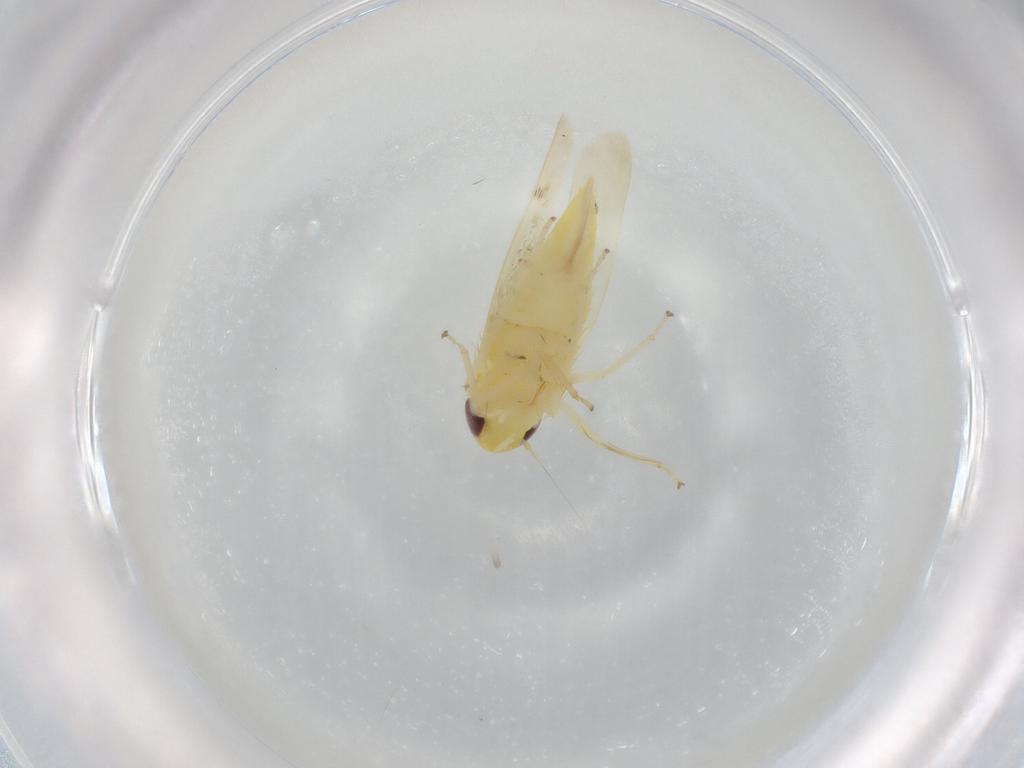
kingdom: Animalia
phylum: Arthropoda
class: Insecta
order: Hemiptera
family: Cicadellidae
